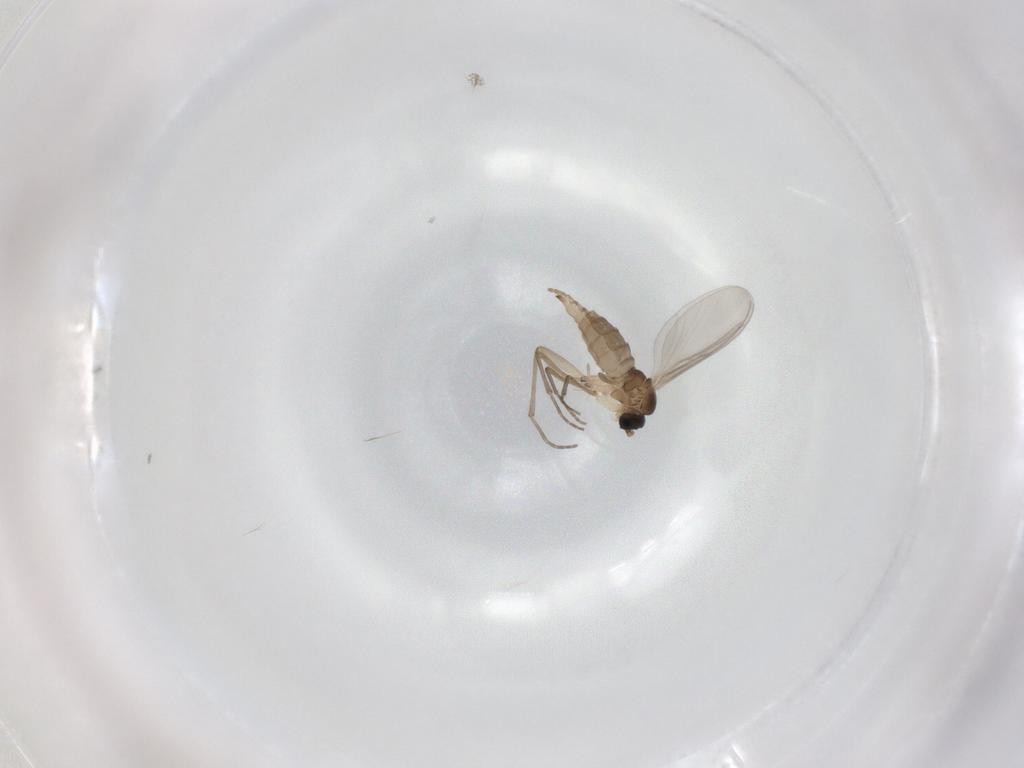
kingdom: Animalia
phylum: Arthropoda
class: Insecta
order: Diptera
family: Sciaridae
